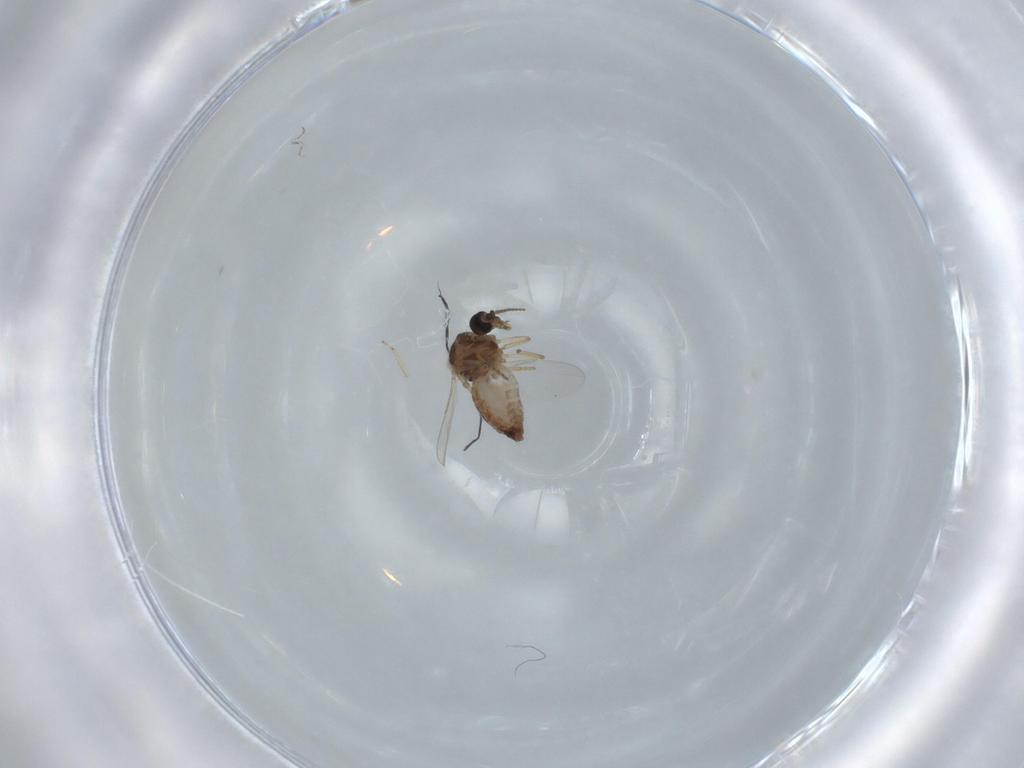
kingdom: Animalia
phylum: Arthropoda
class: Insecta
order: Diptera
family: Ceratopogonidae
